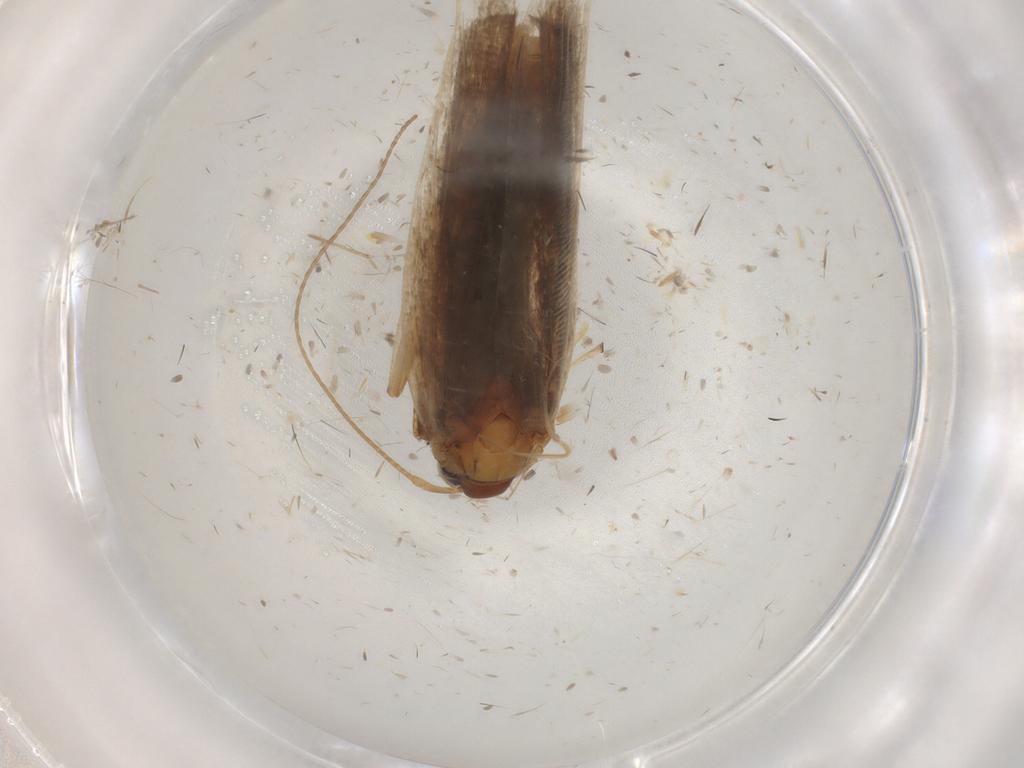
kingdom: Animalia
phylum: Arthropoda
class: Insecta
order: Lepidoptera
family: Gelechiidae
